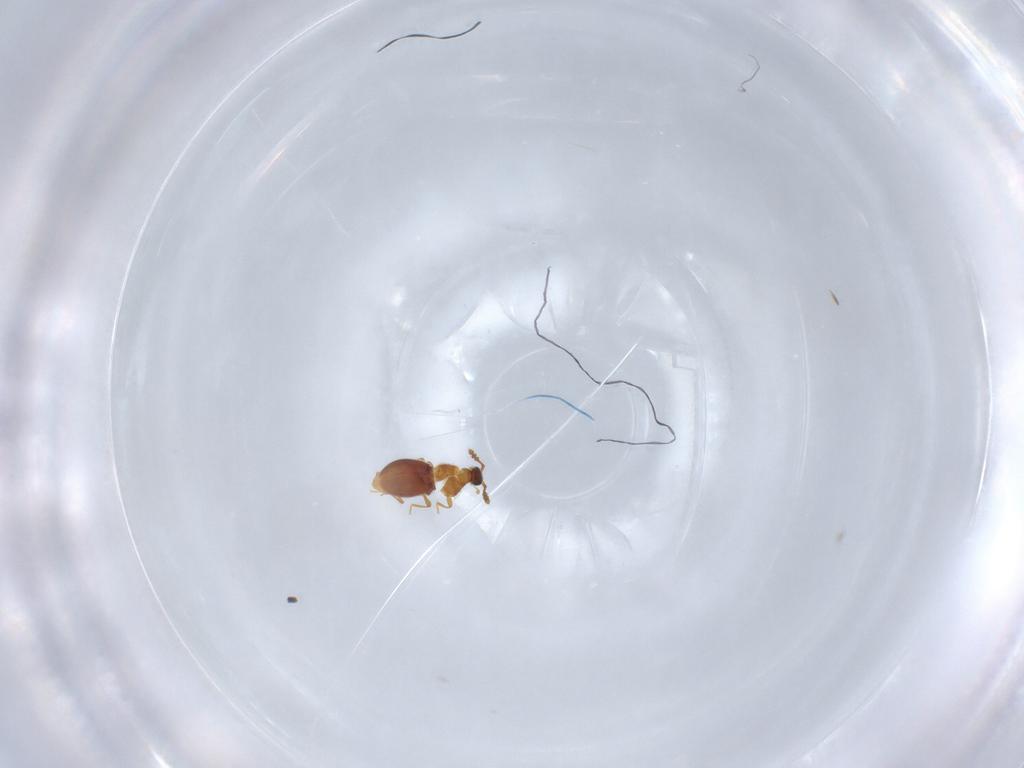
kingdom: Animalia
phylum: Arthropoda
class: Insecta
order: Coleoptera
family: Staphylinidae
